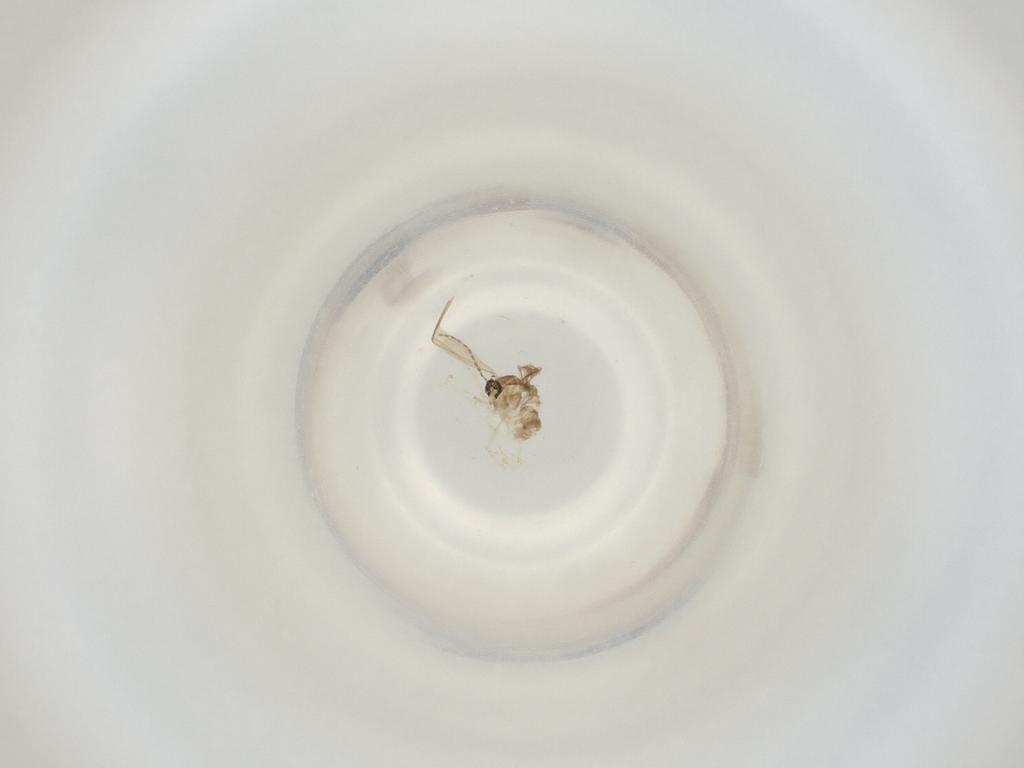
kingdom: Animalia
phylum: Arthropoda
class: Insecta
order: Diptera
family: Cecidomyiidae
